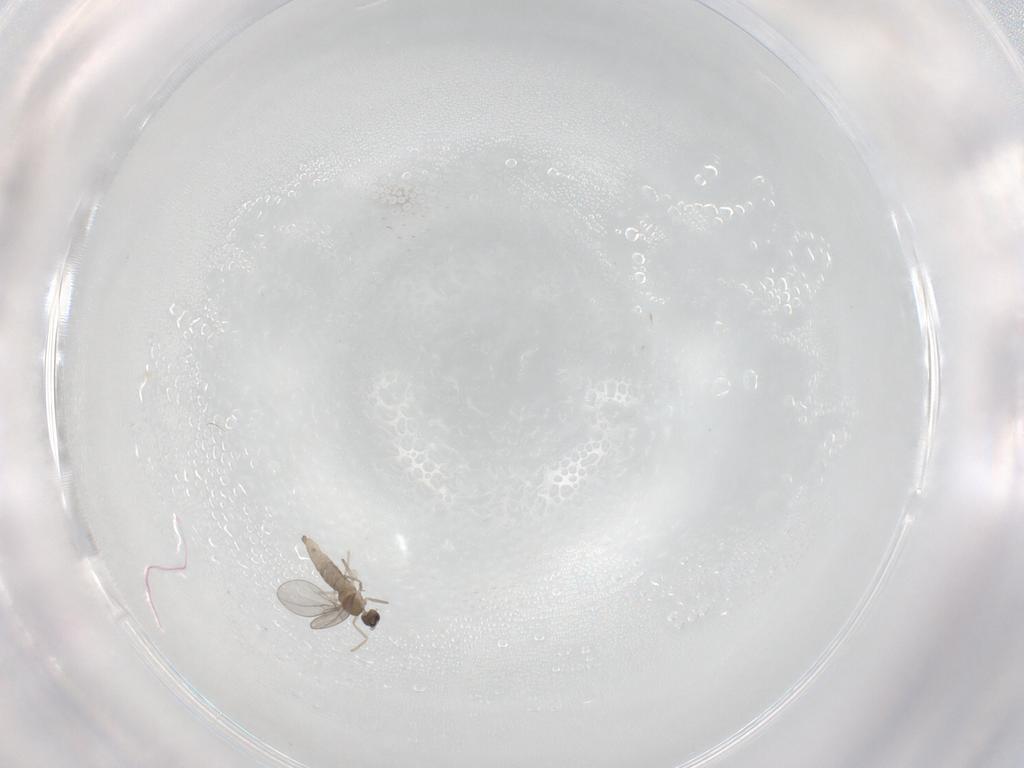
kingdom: Animalia
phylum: Arthropoda
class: Insecta
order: Diptera
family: Cecidomyiidae
